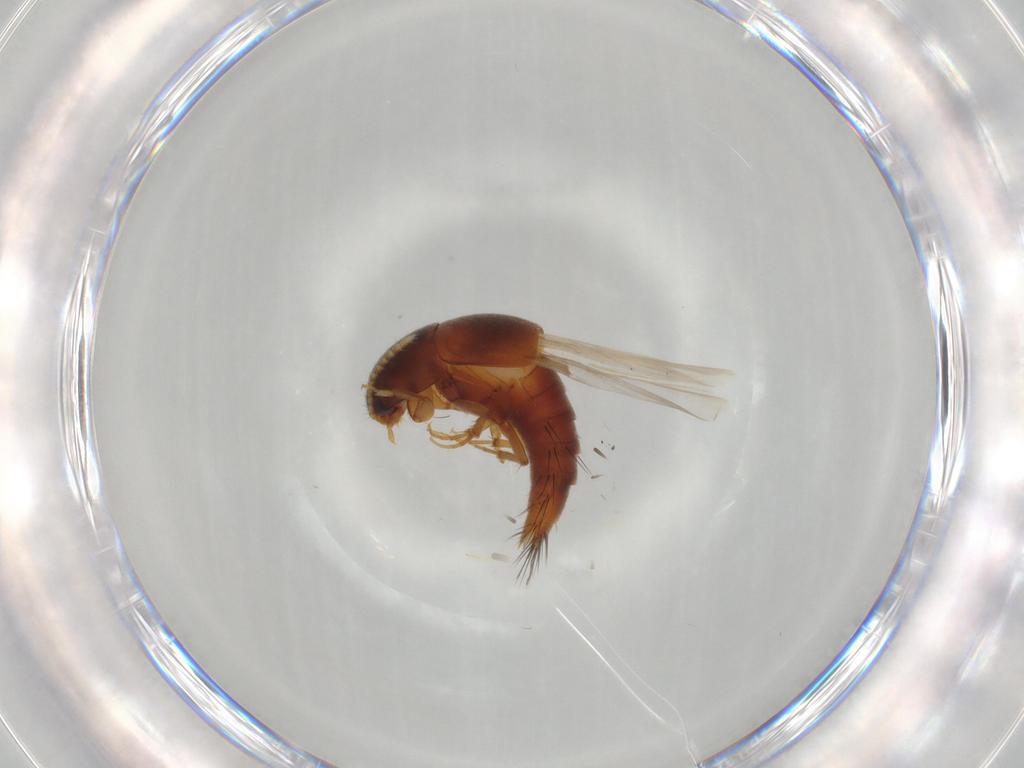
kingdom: Animalia
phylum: Arthropoda
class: Insecta
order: Coleoptera
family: Staphylinidae
